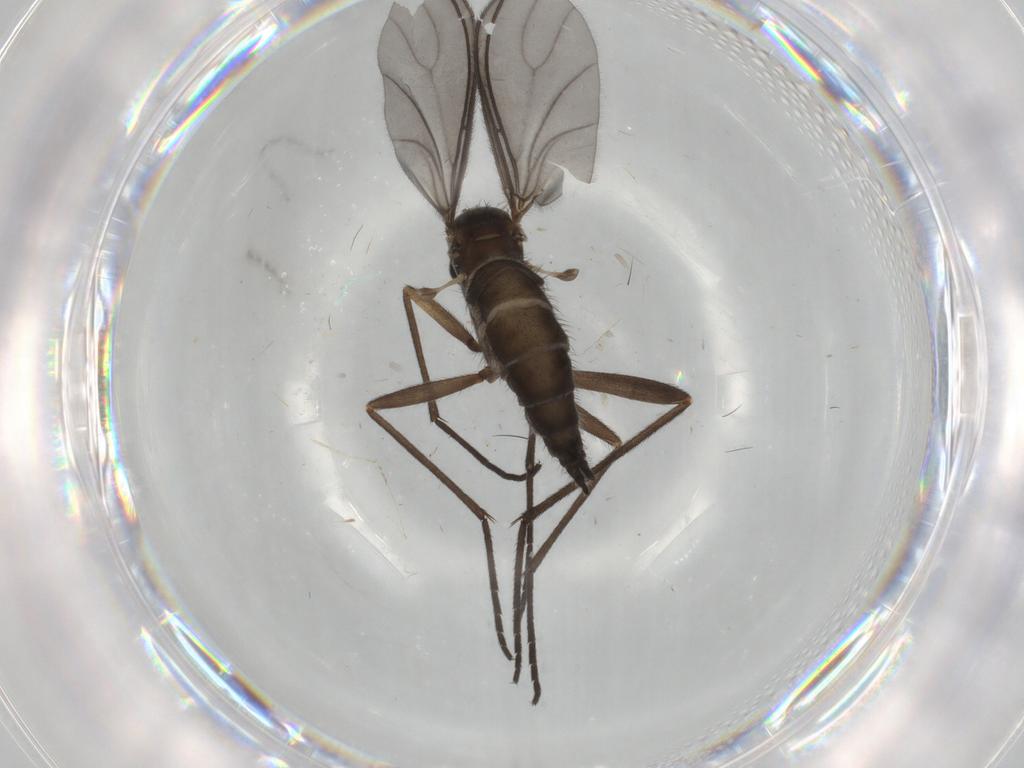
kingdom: Animalia
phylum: Arthropoda
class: Insecta
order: Diptera
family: Sciaridae
